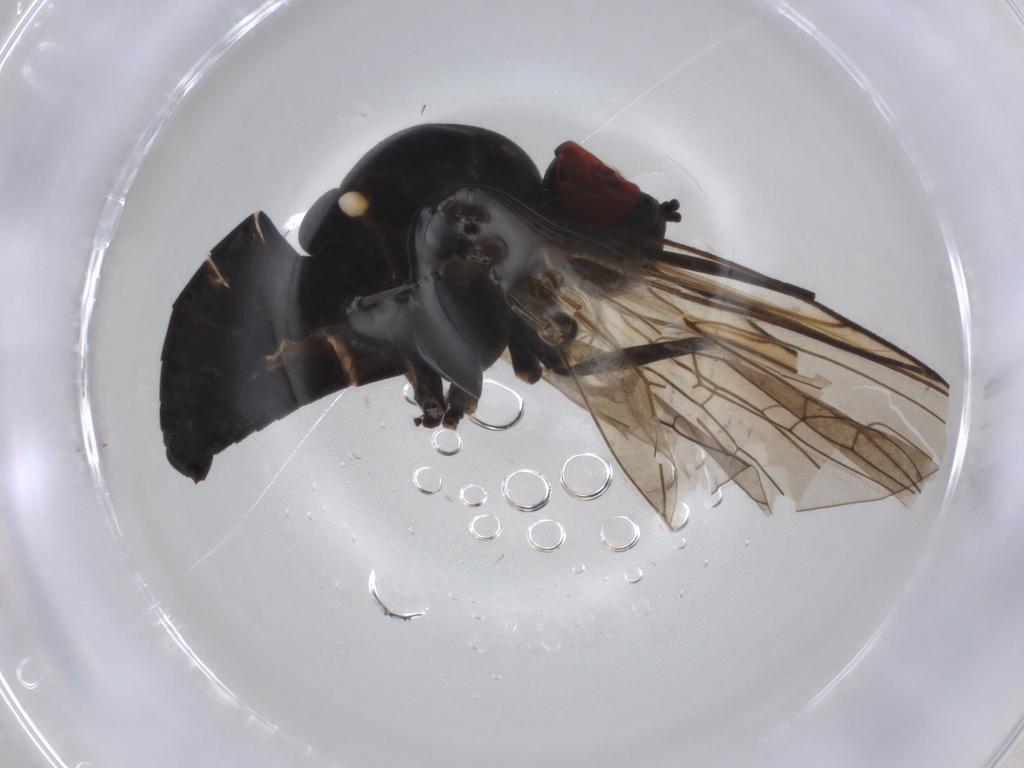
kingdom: Animalia
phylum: Arthropoda
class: Insecta
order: Diptera
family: Bombyliidae
